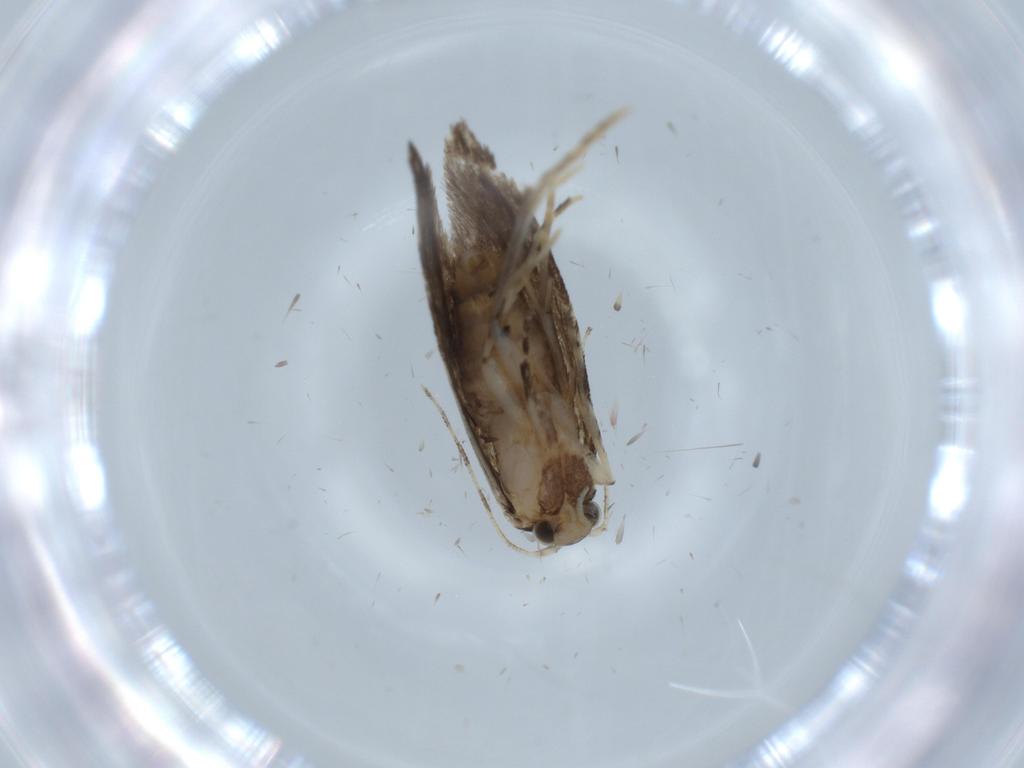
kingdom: Animalia
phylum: Arthropoda
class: Insecta
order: Lepidoptera
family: Tineidae
